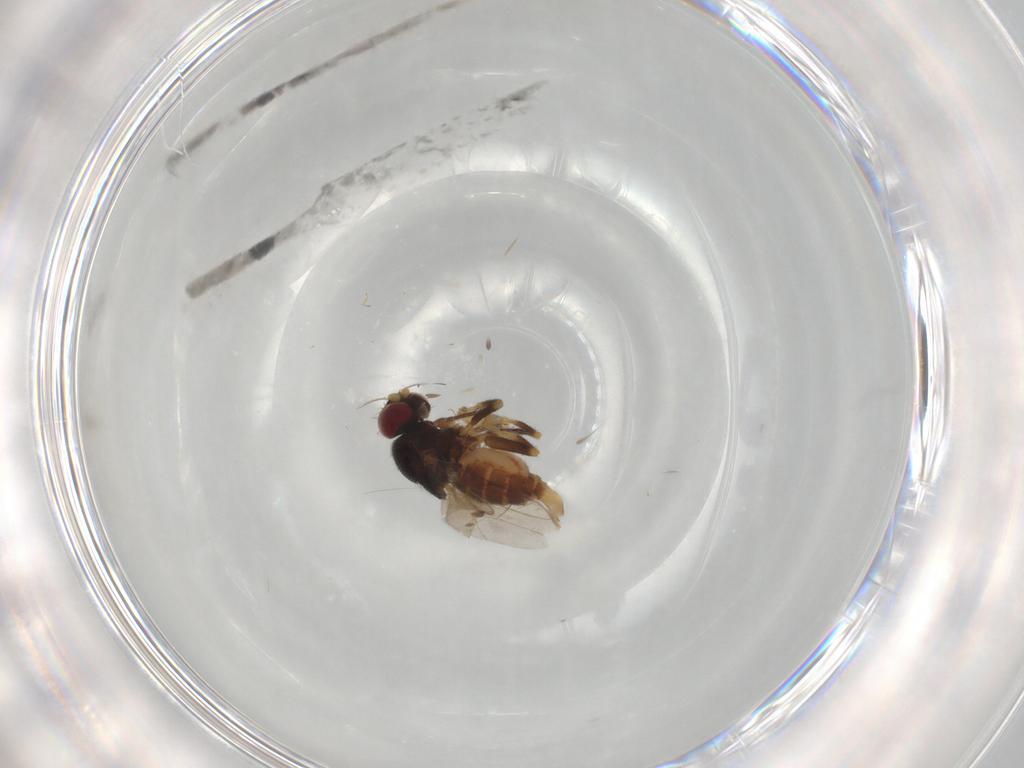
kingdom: Animalia
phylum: Arthropoda
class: Insecta
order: Diptera
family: Chloropidae
